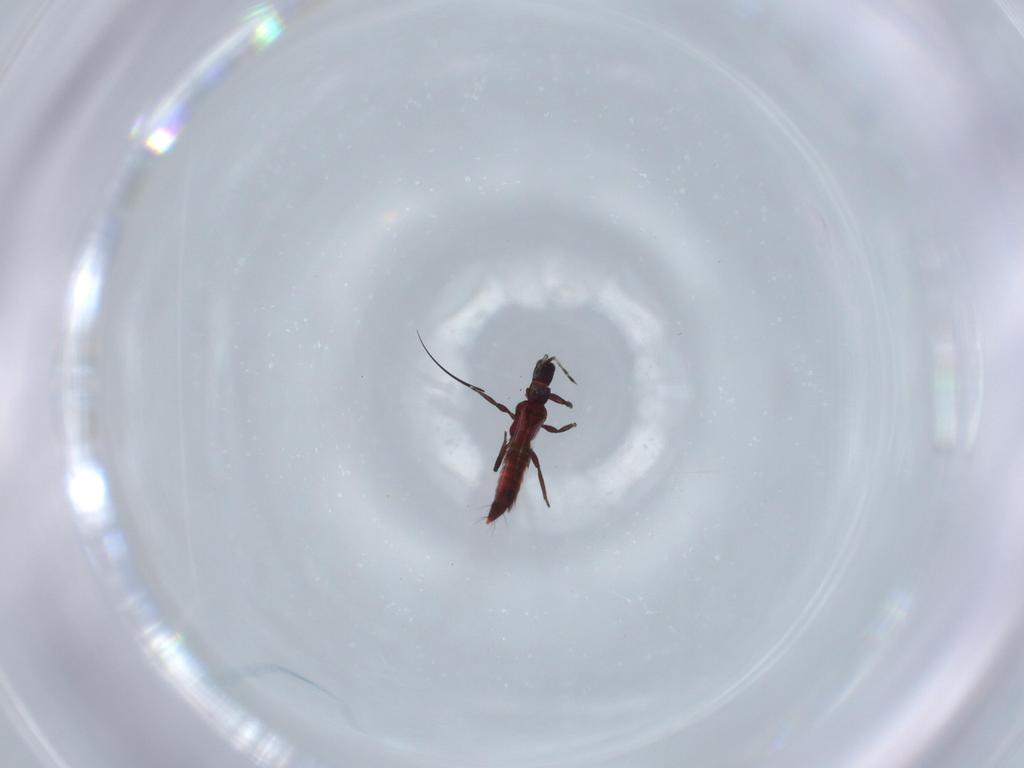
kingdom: Animalia
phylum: Arthropoda
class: Insecta
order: Thysanoptera
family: Aeolothripidae
